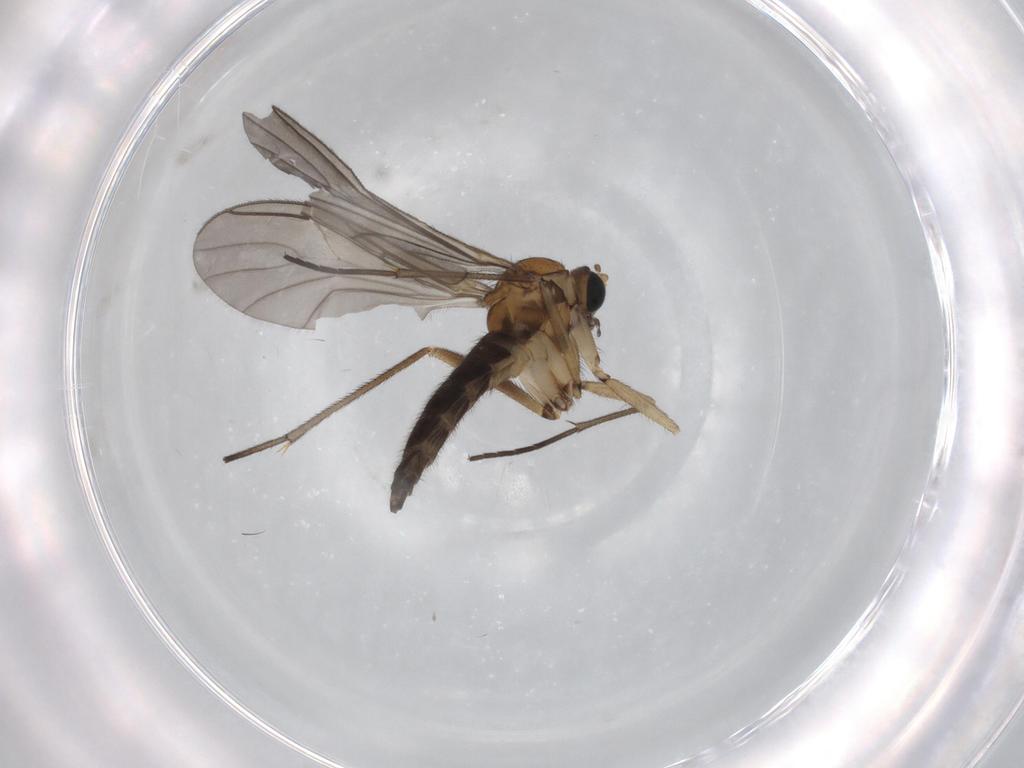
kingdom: Animalia
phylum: Arthropoda
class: Insecta
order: Diptera
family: Sciaridae
